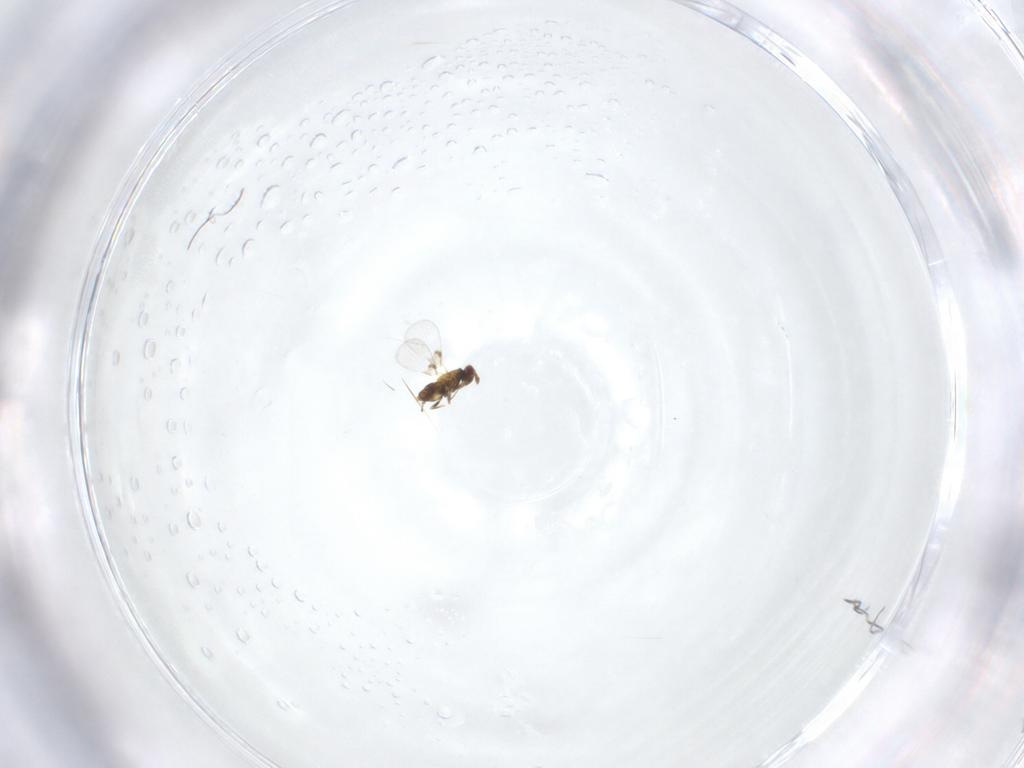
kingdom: Animalia
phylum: Arthropoda
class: Insecta
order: Hymenoptera
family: Trichogrammatidae
